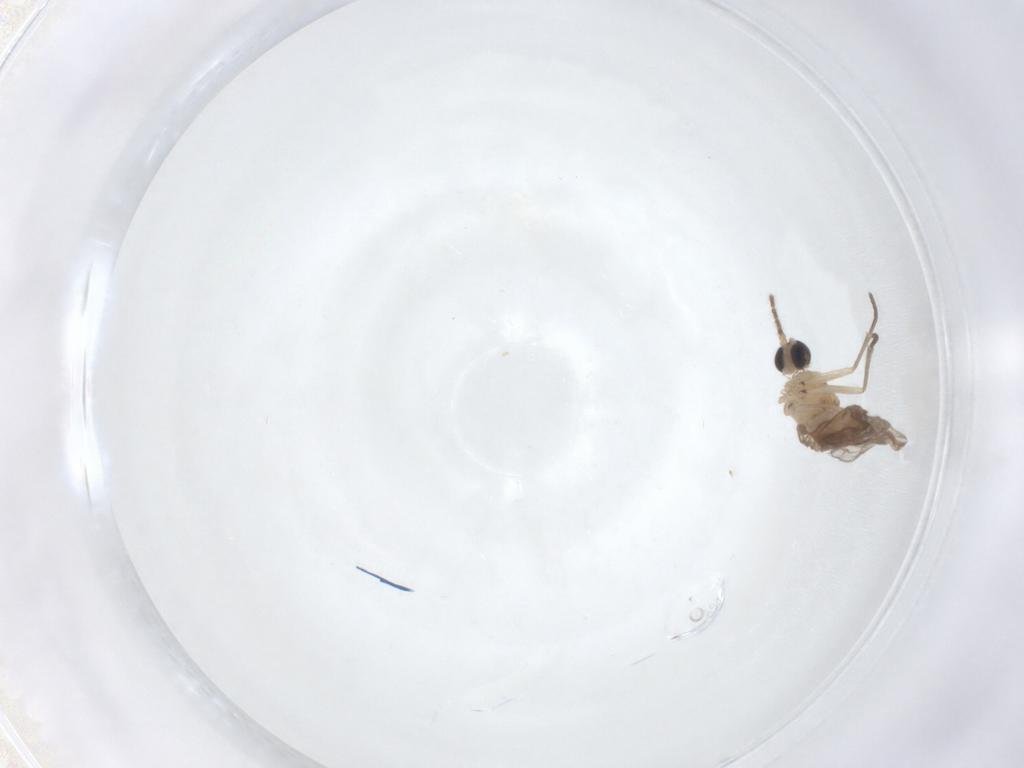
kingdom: Animalia
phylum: Arthropoda
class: Insecta
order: Diptera
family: Sciaridae
